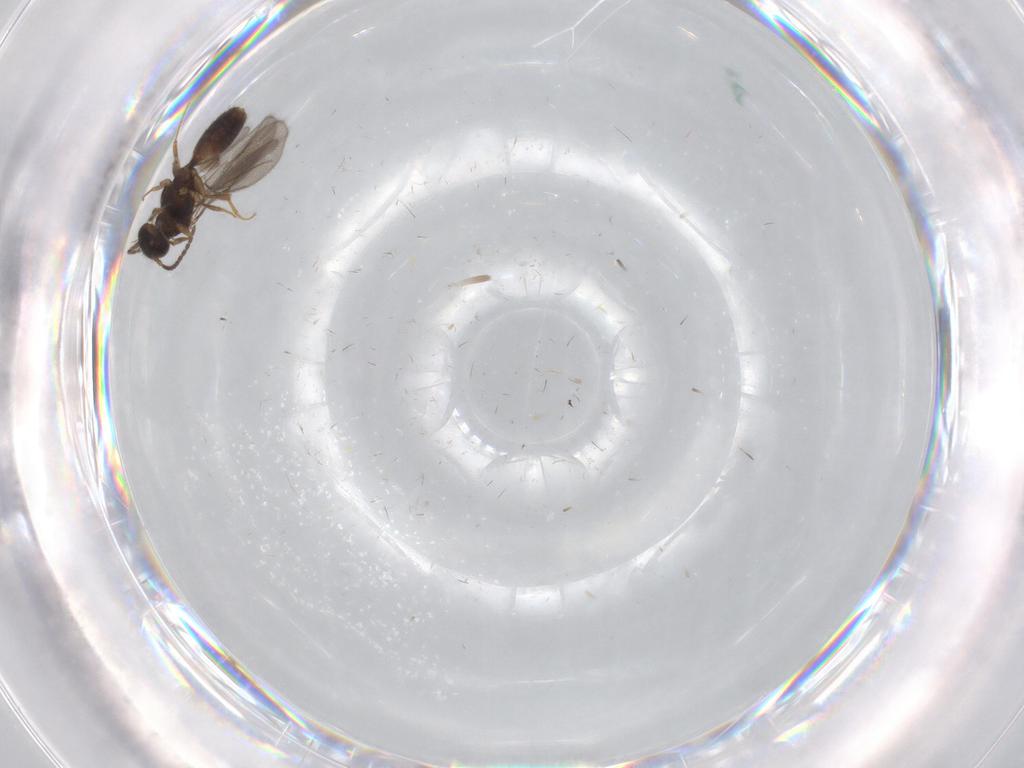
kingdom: Animalia
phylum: Arthropoda
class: Insecta
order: Hymenoptera
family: Bethylidae
